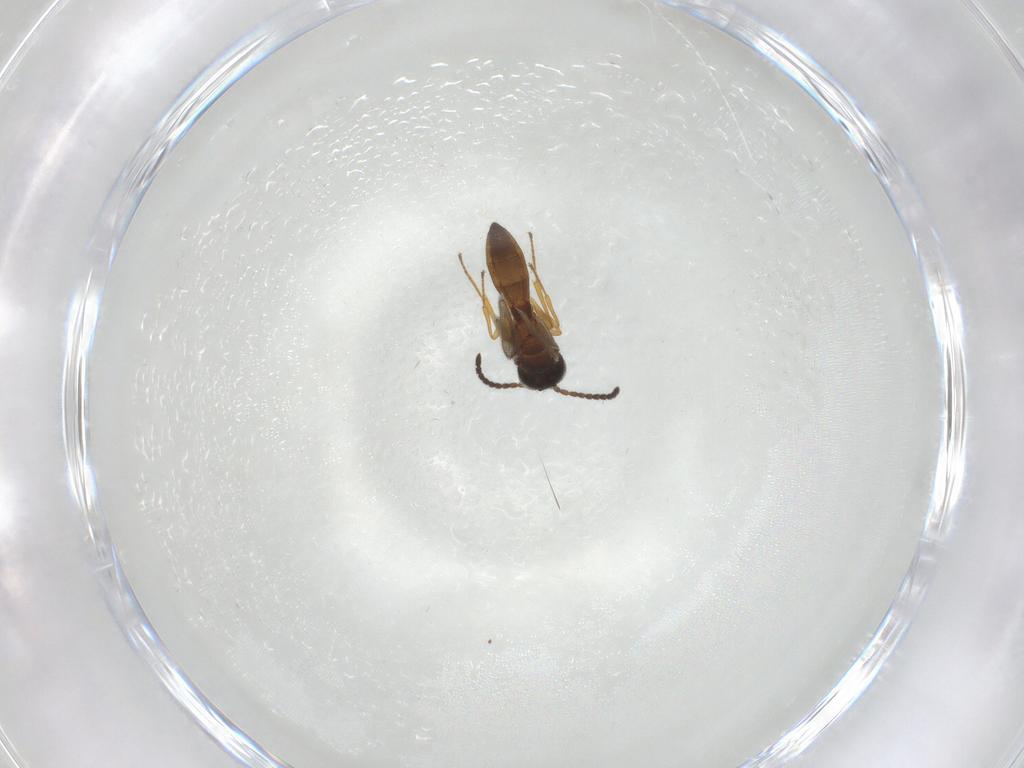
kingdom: Animalia
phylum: Arthropoda
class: Insecta
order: Hymenoptera
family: Scelionidae
